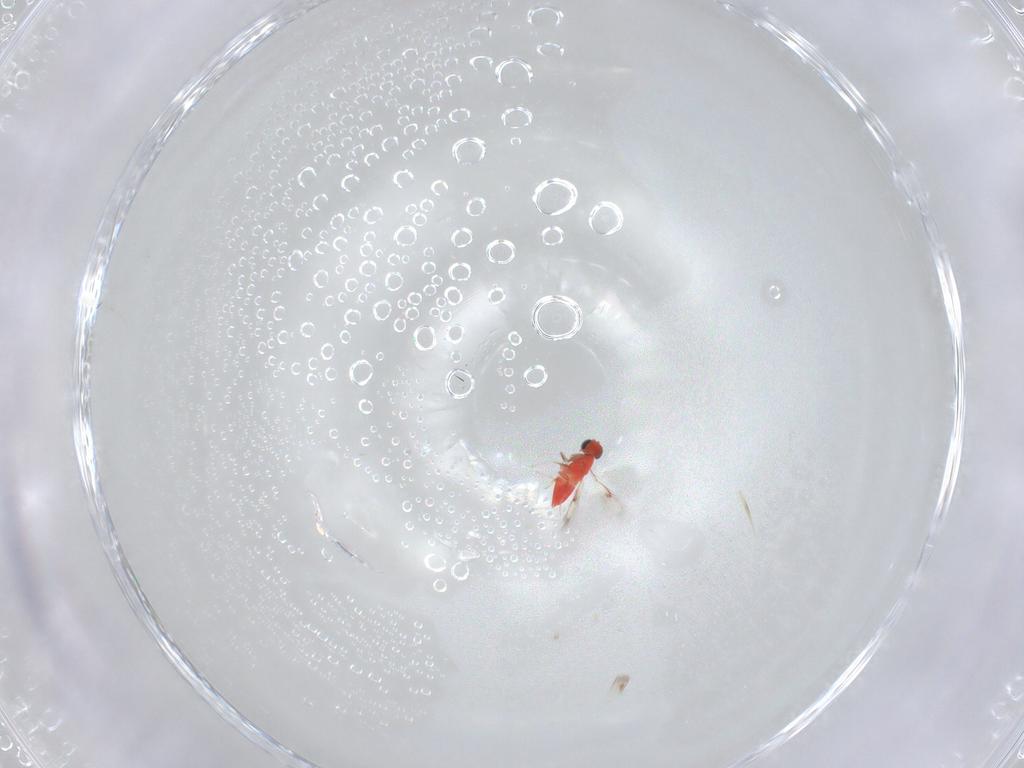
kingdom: Animalia
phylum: Arthropoda
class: Insecta
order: Hymenoptera
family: Trichogrammatidae
